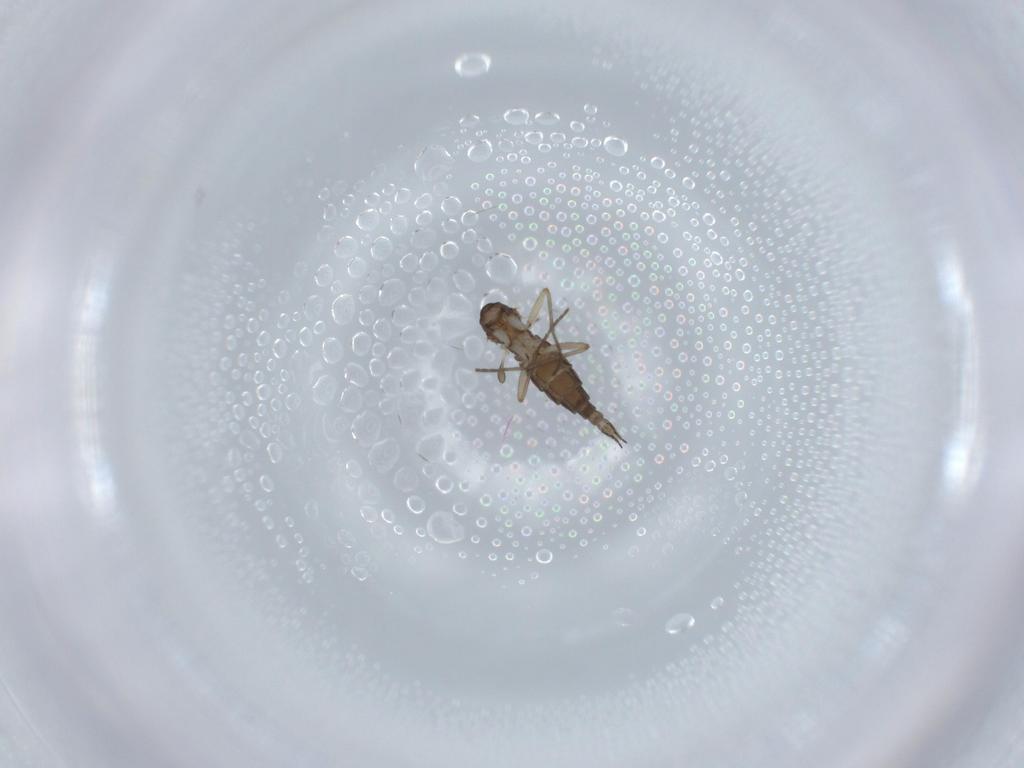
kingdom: Animalia
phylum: Arthropoda
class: Insecta
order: Diptera
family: Sciaridae
